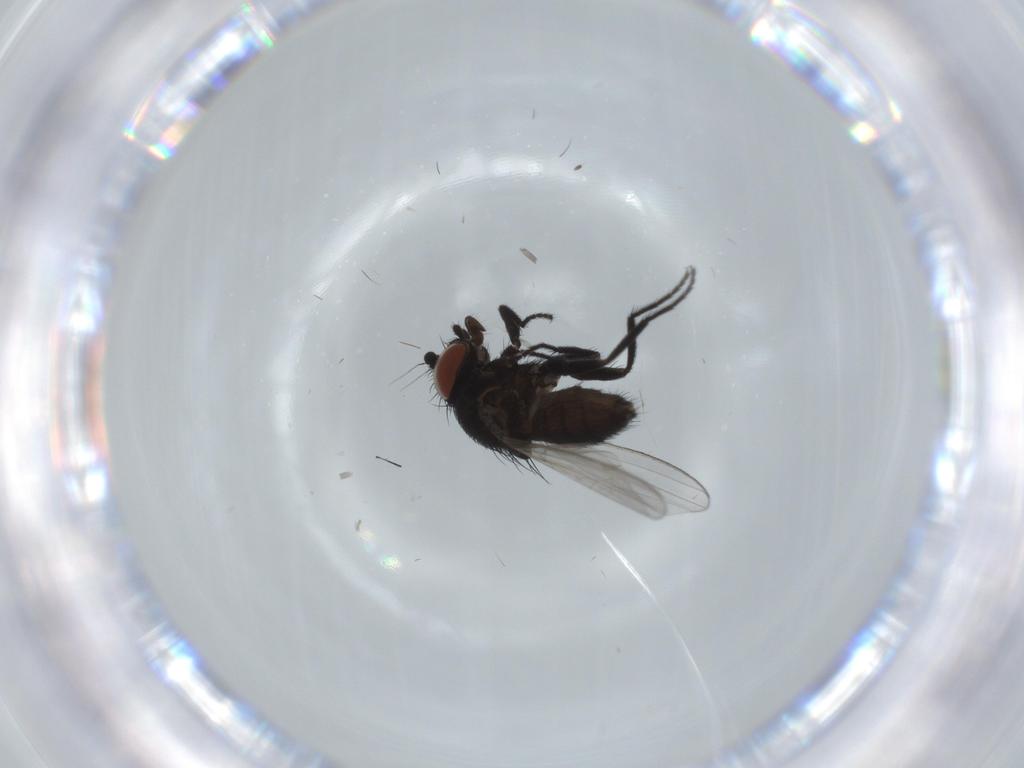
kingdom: Animalia
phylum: Arthropoda
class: Insecta
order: Diptera
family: Milichiidae
